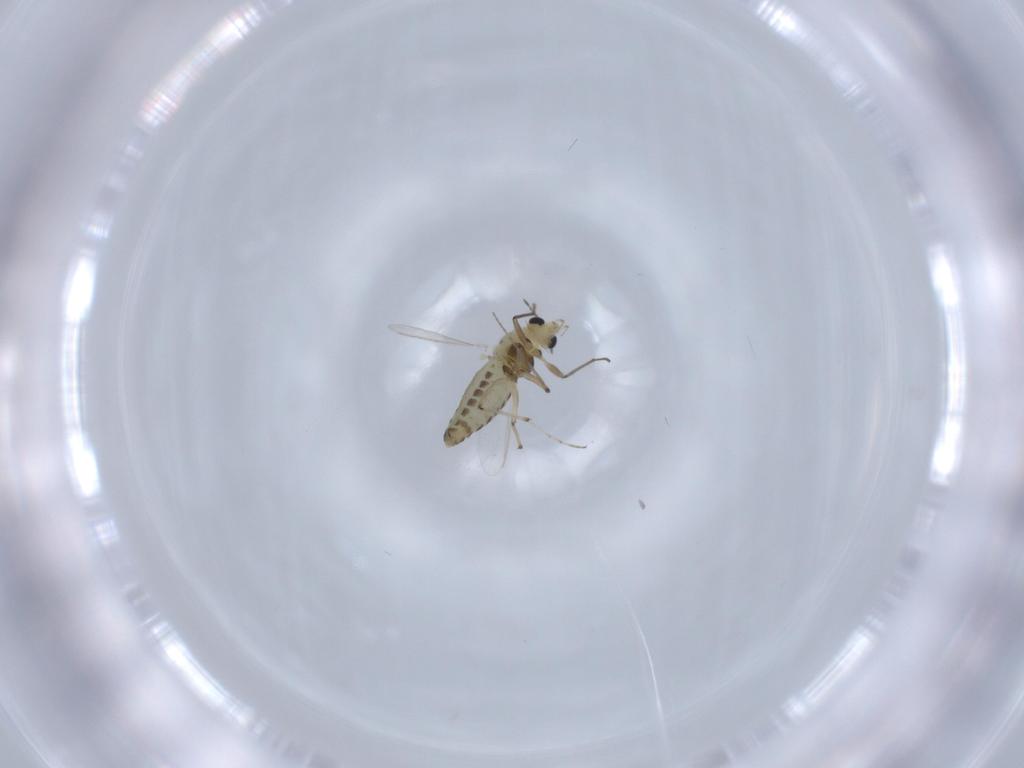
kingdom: Animalia
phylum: Arthropoda
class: Insecta
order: Diptera
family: Chironomidae
